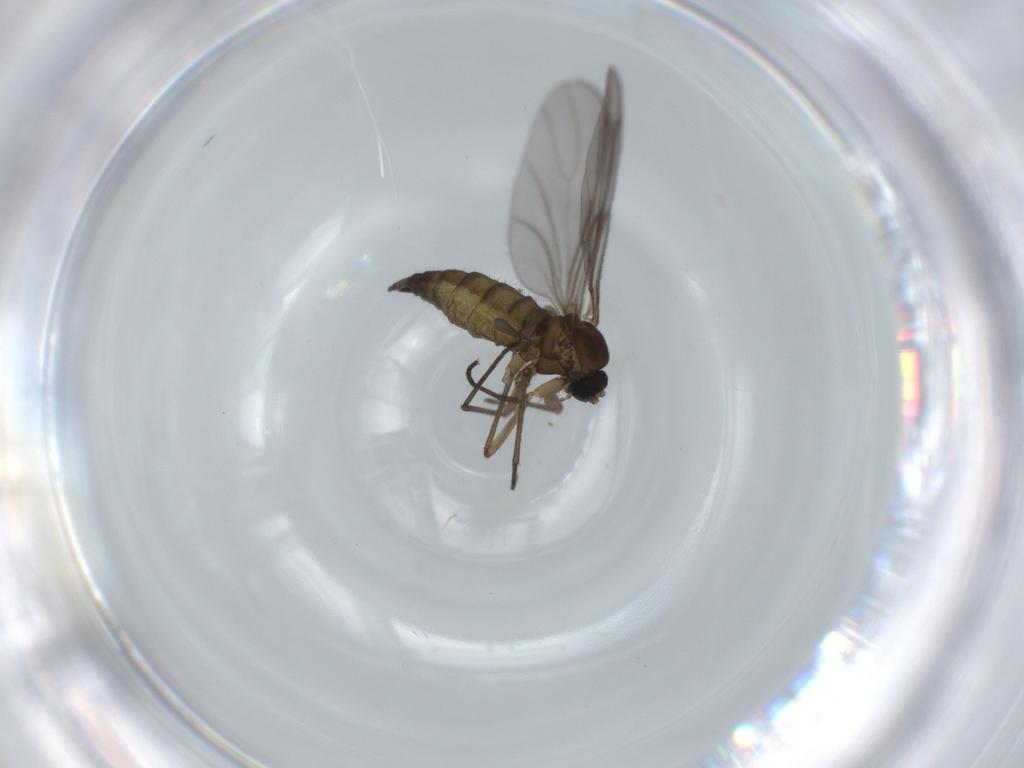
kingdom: Animalia
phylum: Arthropoda
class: Insecta
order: Diptera
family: Sciaridae
